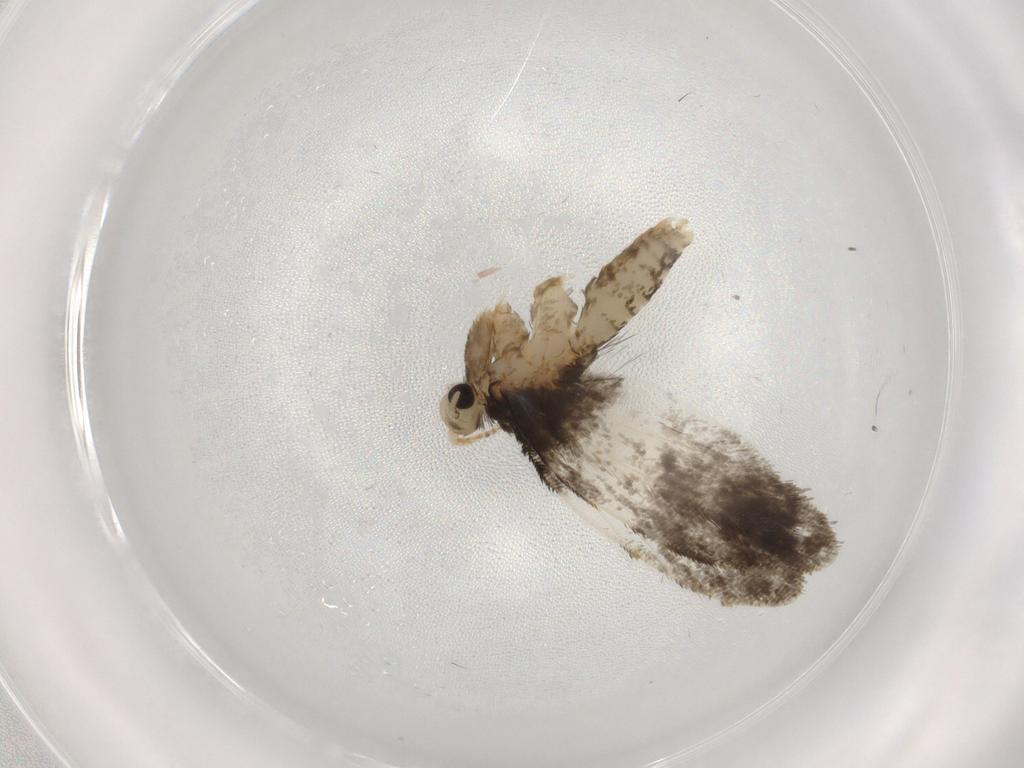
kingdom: Animalia
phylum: Arthropoda
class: Insecta
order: Lepidoptera
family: Psychidae
